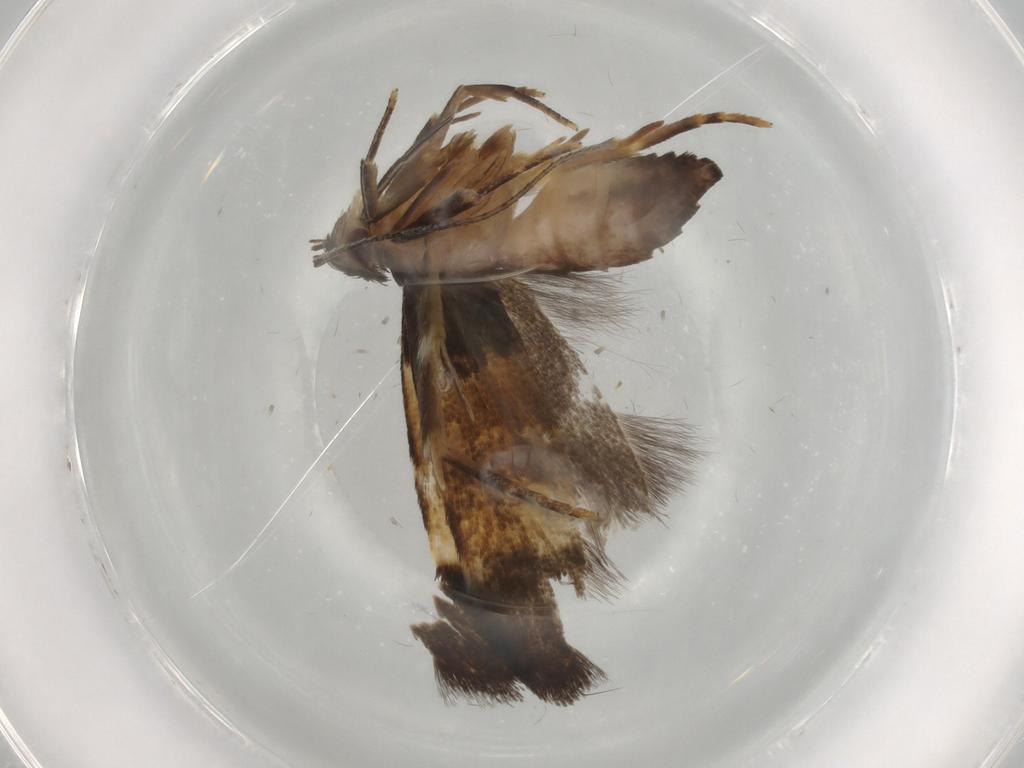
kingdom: Animalia
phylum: Arthropoda
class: Insecta
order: Lepidoptera
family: Cosmopterigidae
